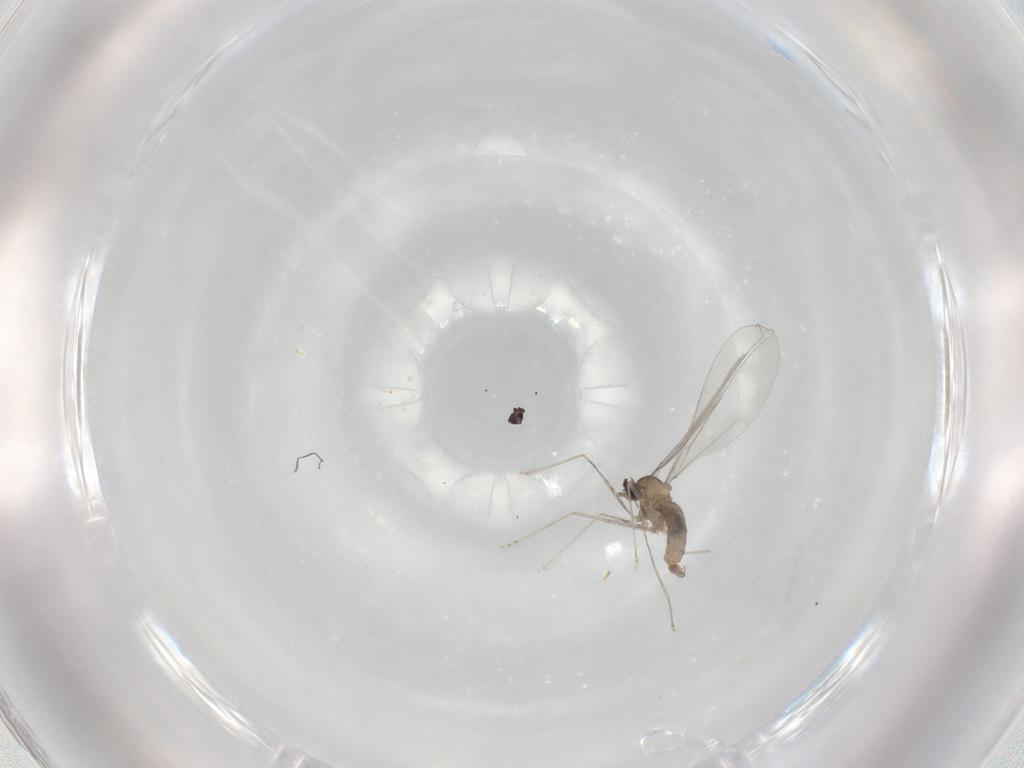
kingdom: Animalia
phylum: Arthropoda
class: Insecta
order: Diptera
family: Cecidomyiidae
